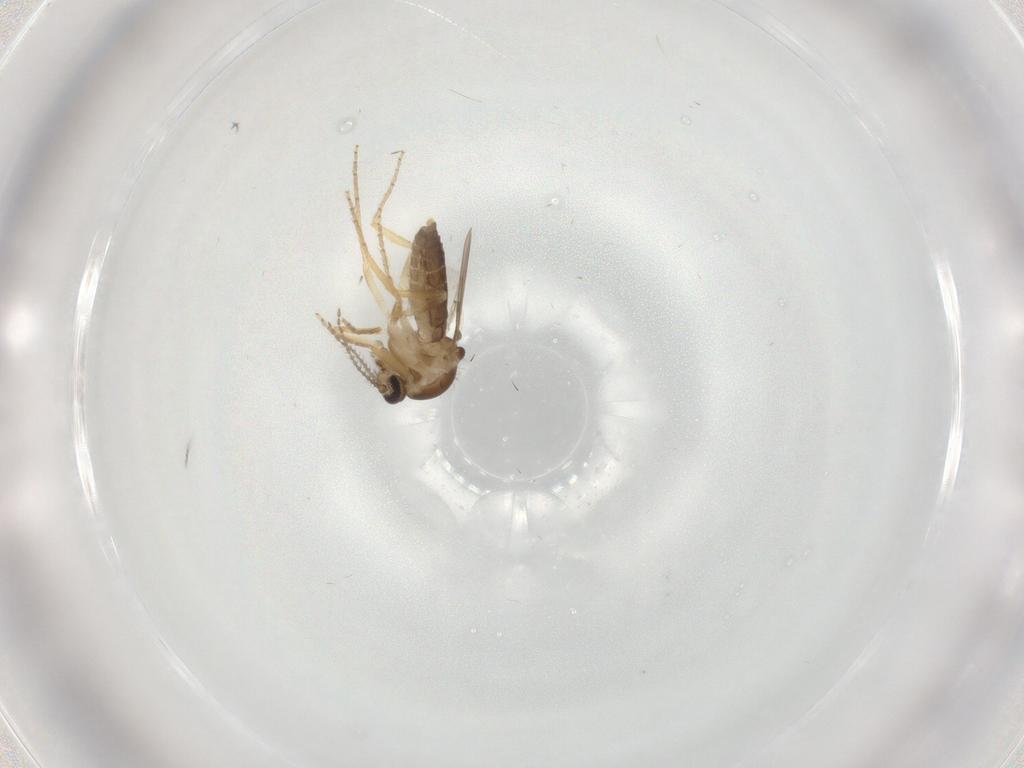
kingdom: Animalia
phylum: Arthropoda
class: Insecta
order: Diptera
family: Ceratopogonidae
